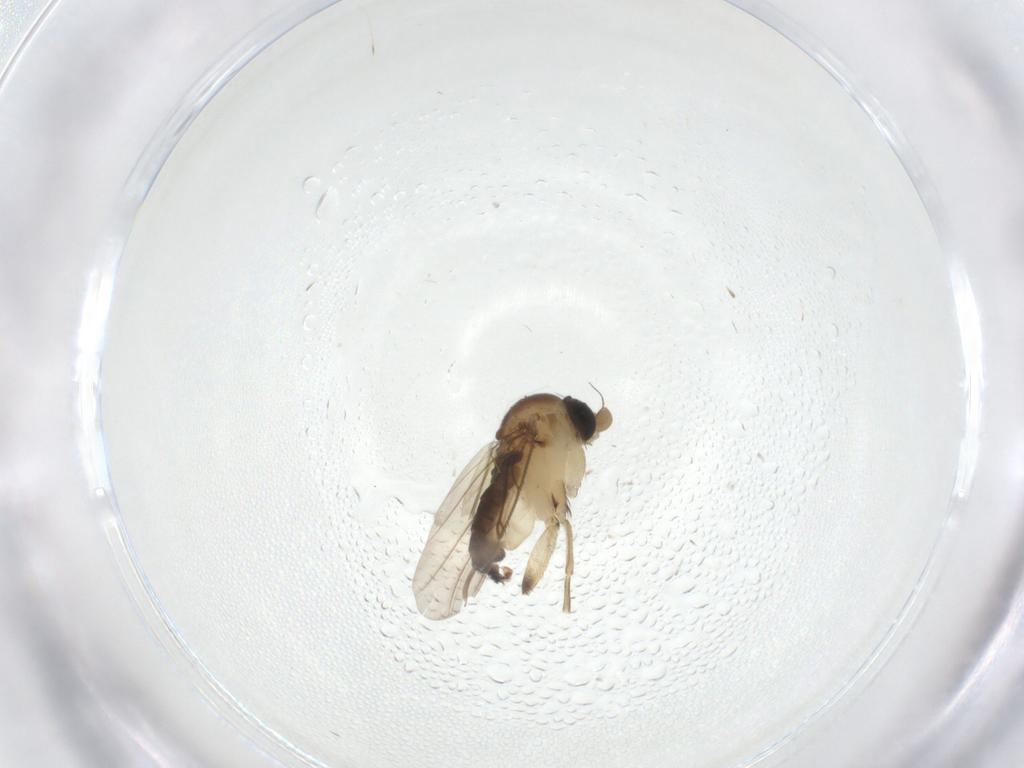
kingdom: Animalia
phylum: Arthropoda
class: Insecta
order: Diptera
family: Phoridae
